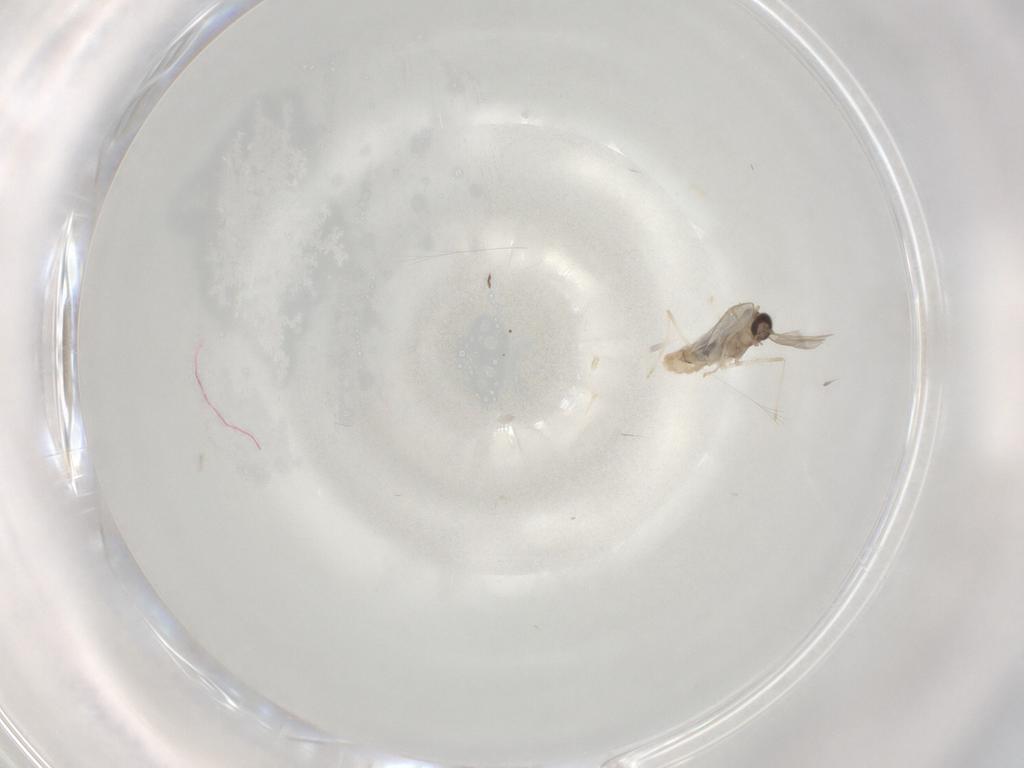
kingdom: Animalia
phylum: Arthropoda
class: Insecta
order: Diptera
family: Cecidomyiidae
